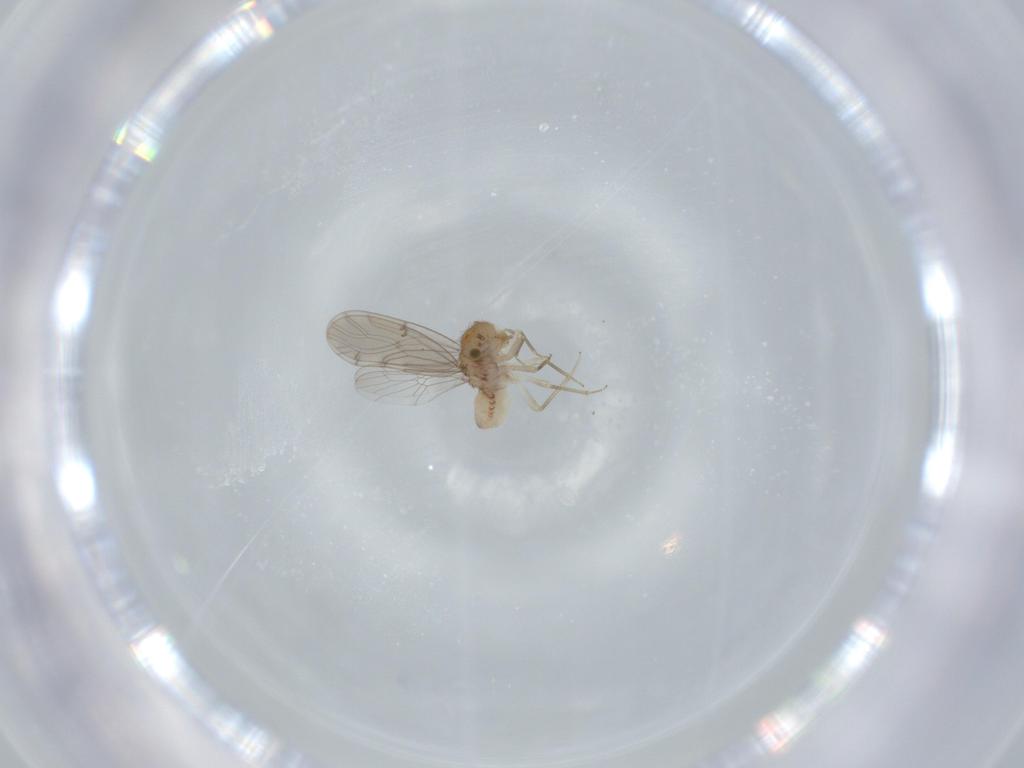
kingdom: Animalia
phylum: Arthropoda
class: Insecta
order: Psocodea
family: Ectopsocidae
